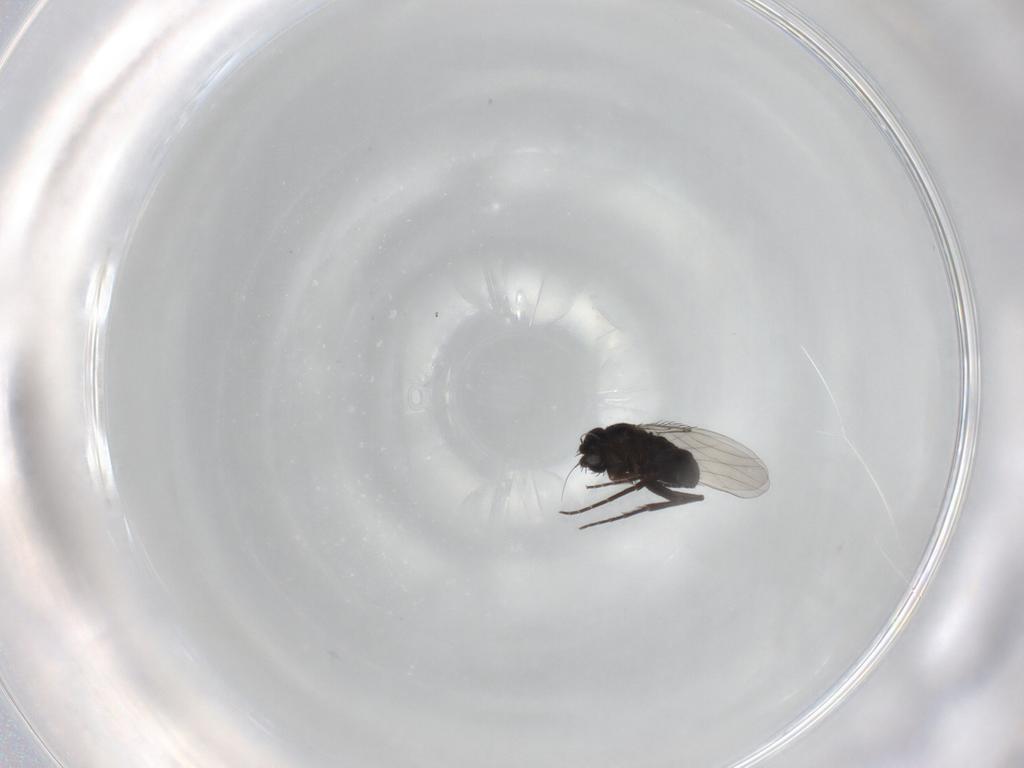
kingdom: Animalia
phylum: Arthropoda
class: Insecta
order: Diptera
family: Phoridae
